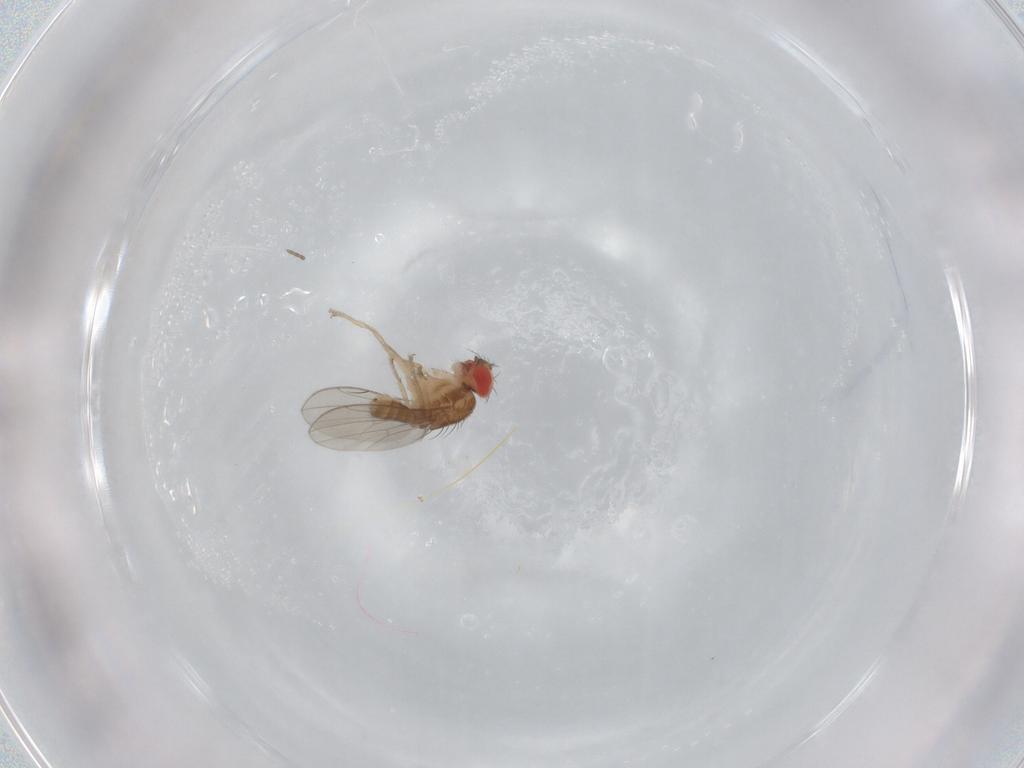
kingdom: Animalia
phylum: Arthropoda
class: Insecta
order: Diptera
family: Drosophilidae
